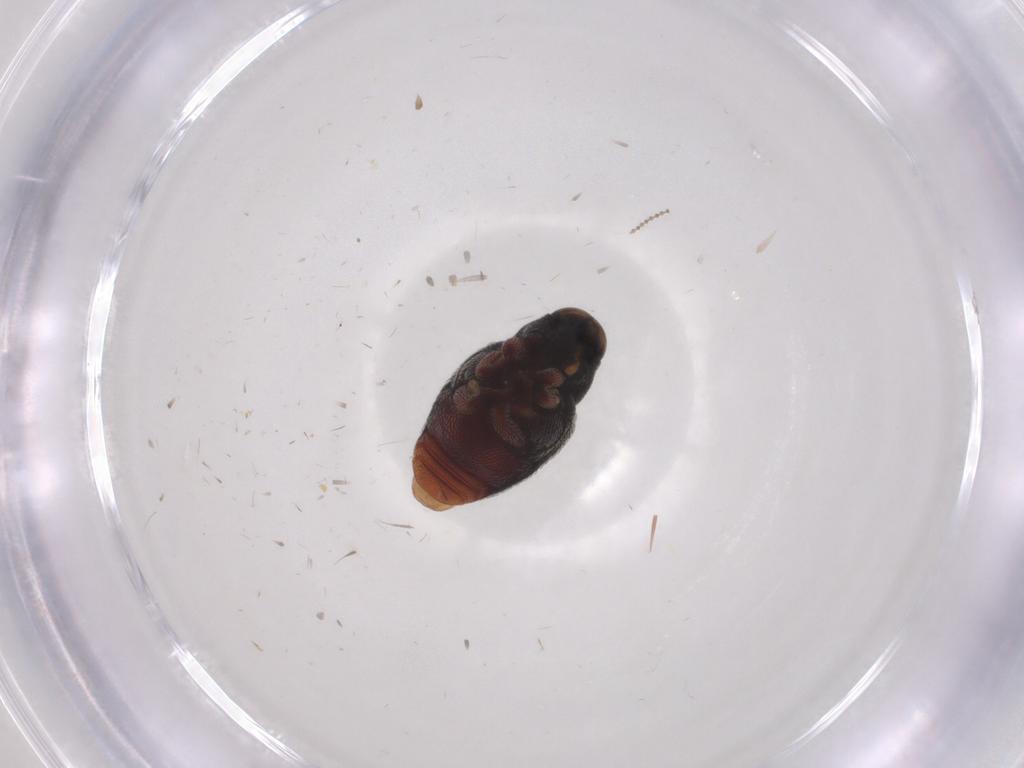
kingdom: Animalia
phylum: Arthropoda
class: Insecta
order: Coleoptera
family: Curculionidae
